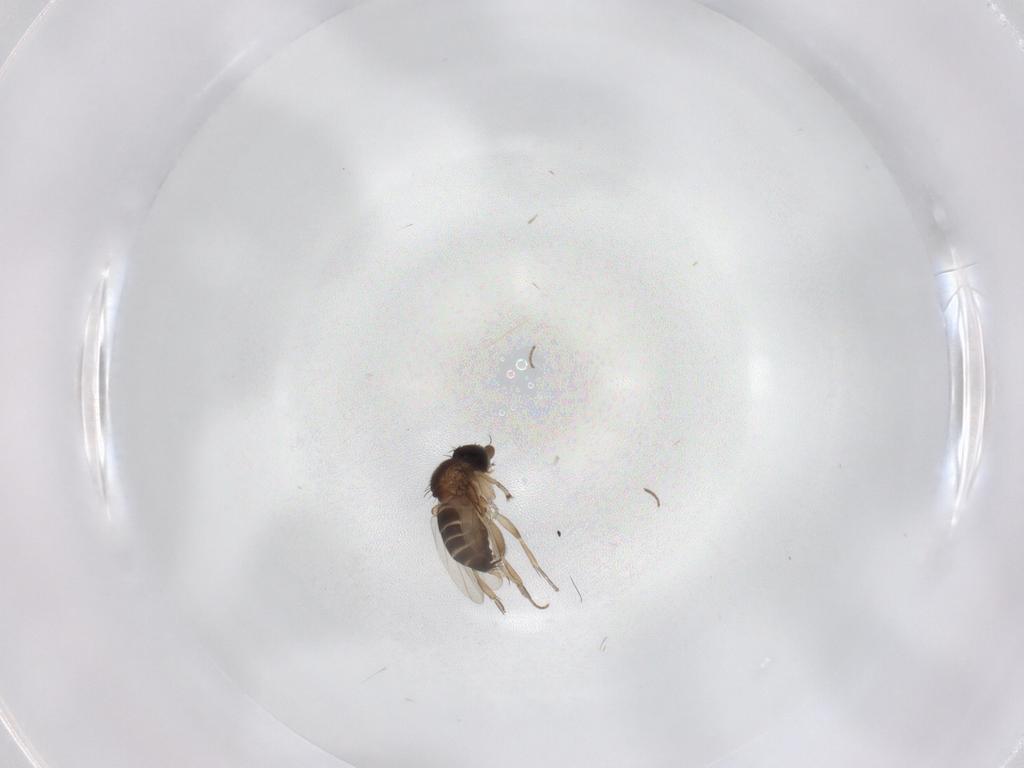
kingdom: Animalia
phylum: Arthropoda
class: Insecta
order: Diptera
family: Phoridae
